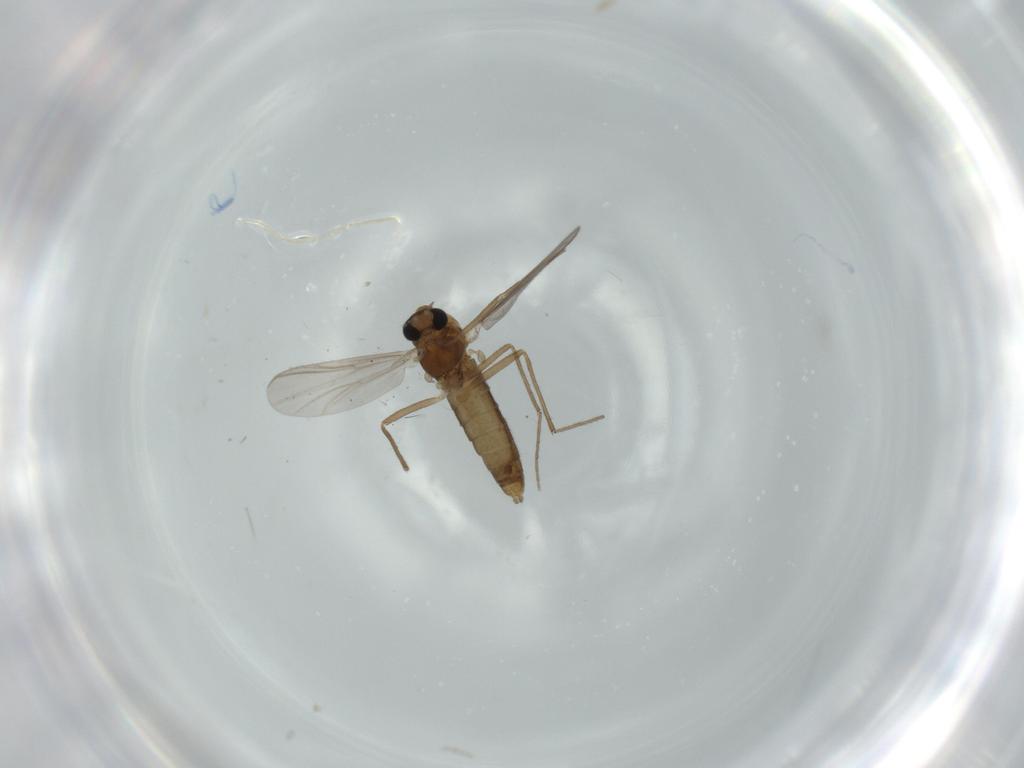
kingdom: Animalia
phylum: Arthropoda
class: Insecta
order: Diptera
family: Chironomidae
